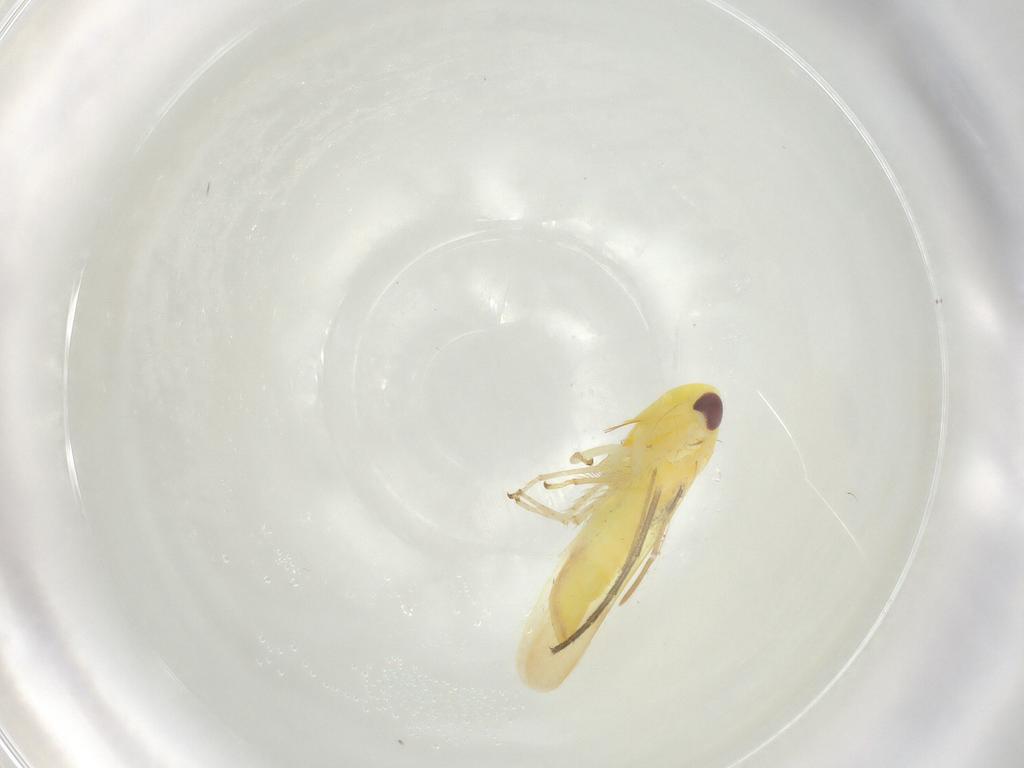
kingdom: Animalia
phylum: Arthropoda
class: Insecta
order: Hemiptera
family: Cicadellidae
